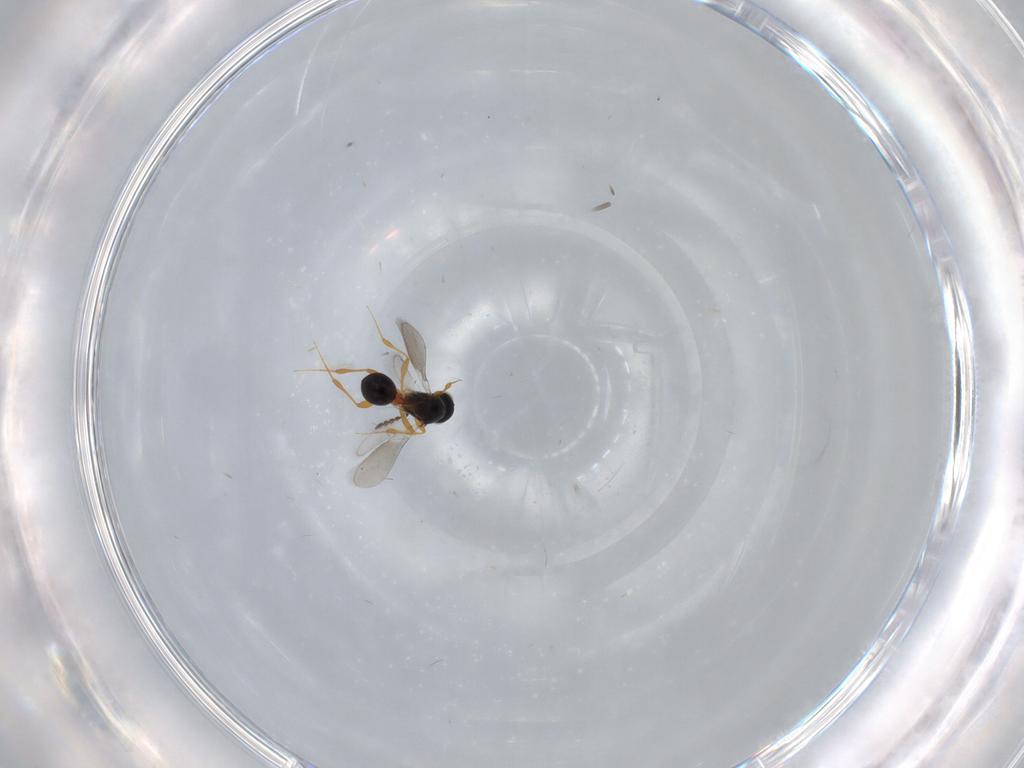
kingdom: Animalia
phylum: Arthropoda
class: Insecta
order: Hymenoptera
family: Platygastridae
